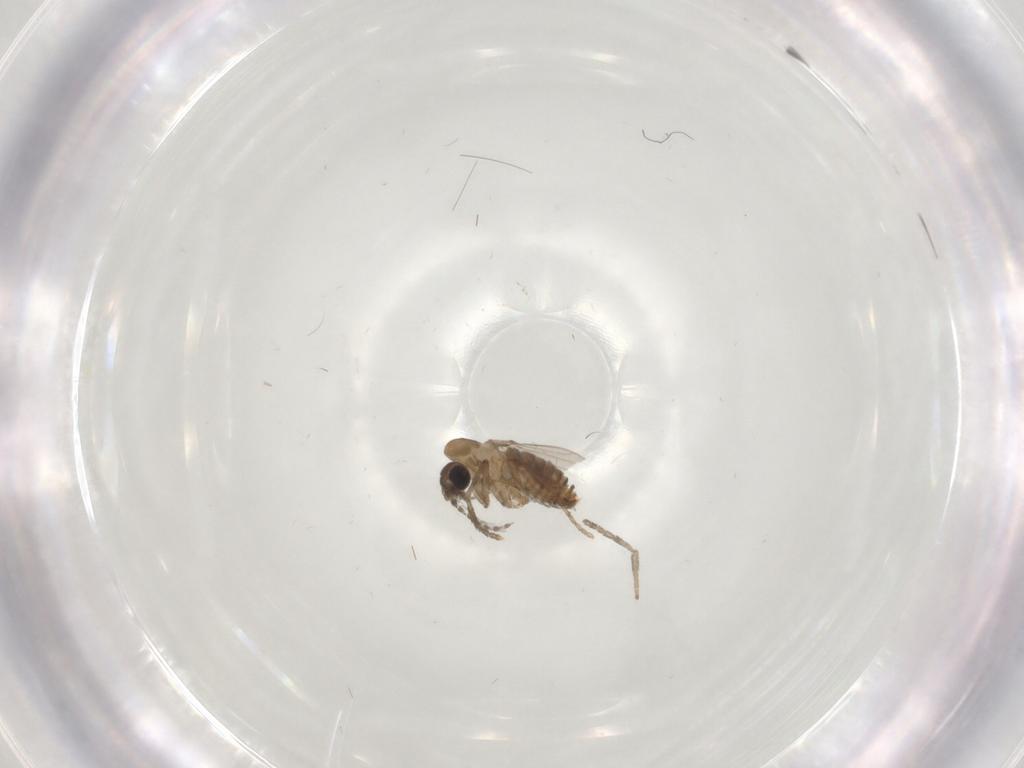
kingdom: Animalia
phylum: Arthropoda
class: Insecta
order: Diptera
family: Psychodidae
